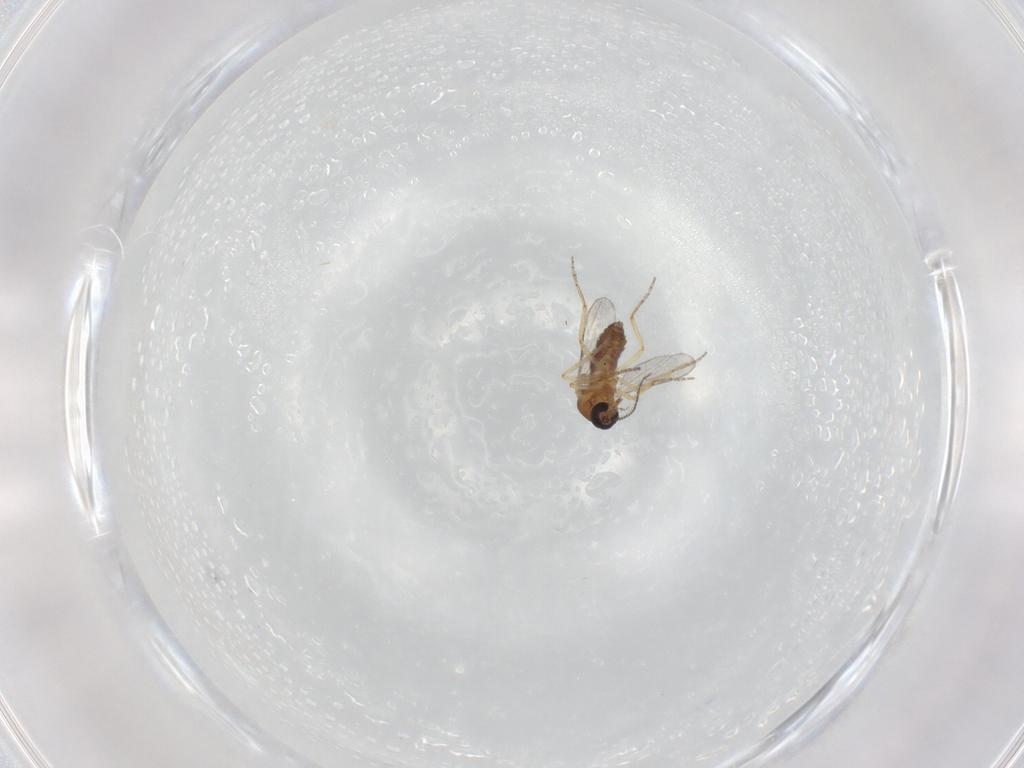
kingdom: Animalia
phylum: Arthropoda
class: Insecta
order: Diptera
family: Ceratopogonidae
